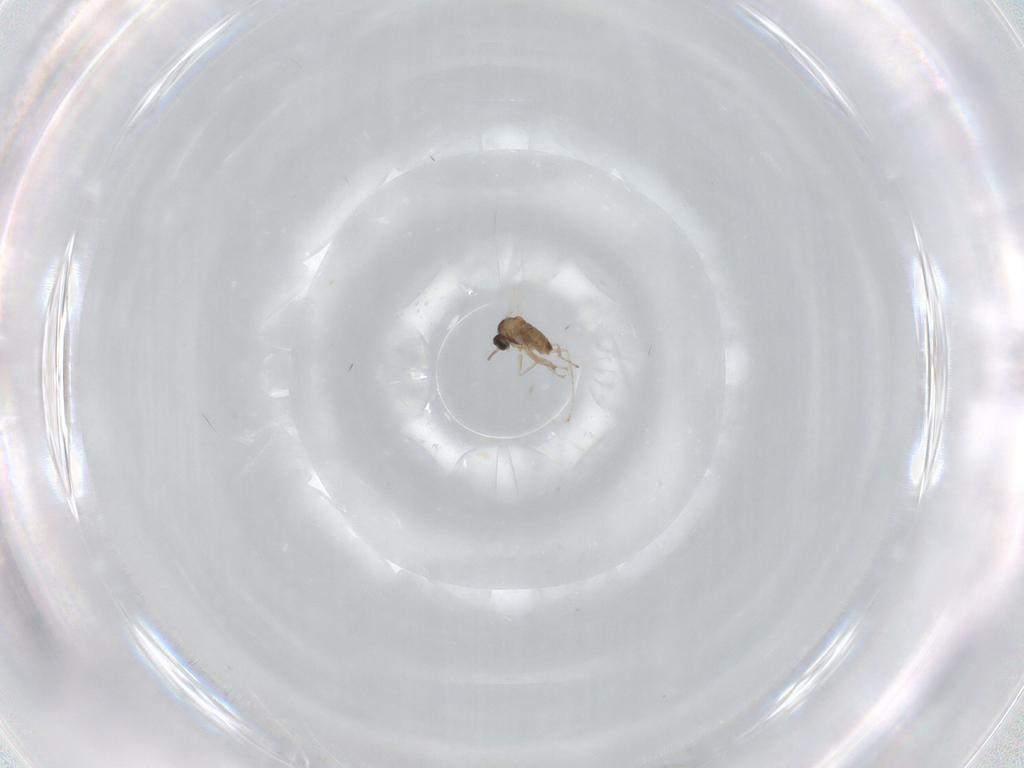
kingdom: Animalia
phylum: Arthropoda
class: Insecta
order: Diptera
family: Cecidomyiidae
